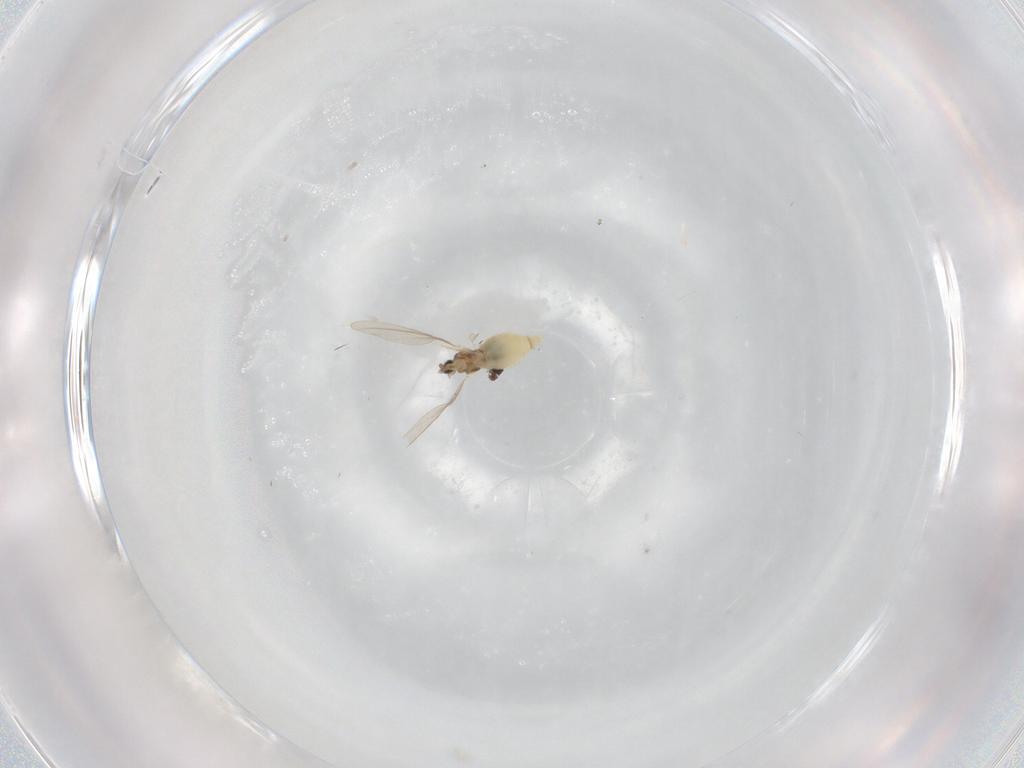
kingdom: Animalia
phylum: Arthropoda
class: Insecta
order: Diptera
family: Cecidomyiidae
